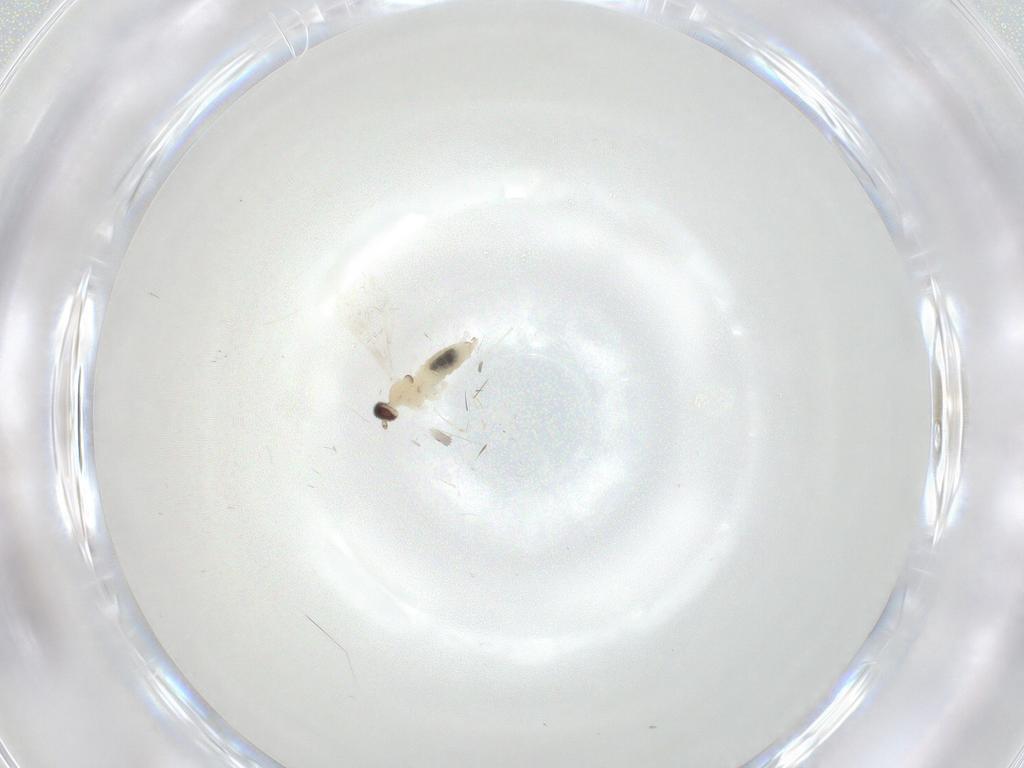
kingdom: Animalia
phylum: Arthropoda
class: Insecta
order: Diptera
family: Cecidomyiidae
